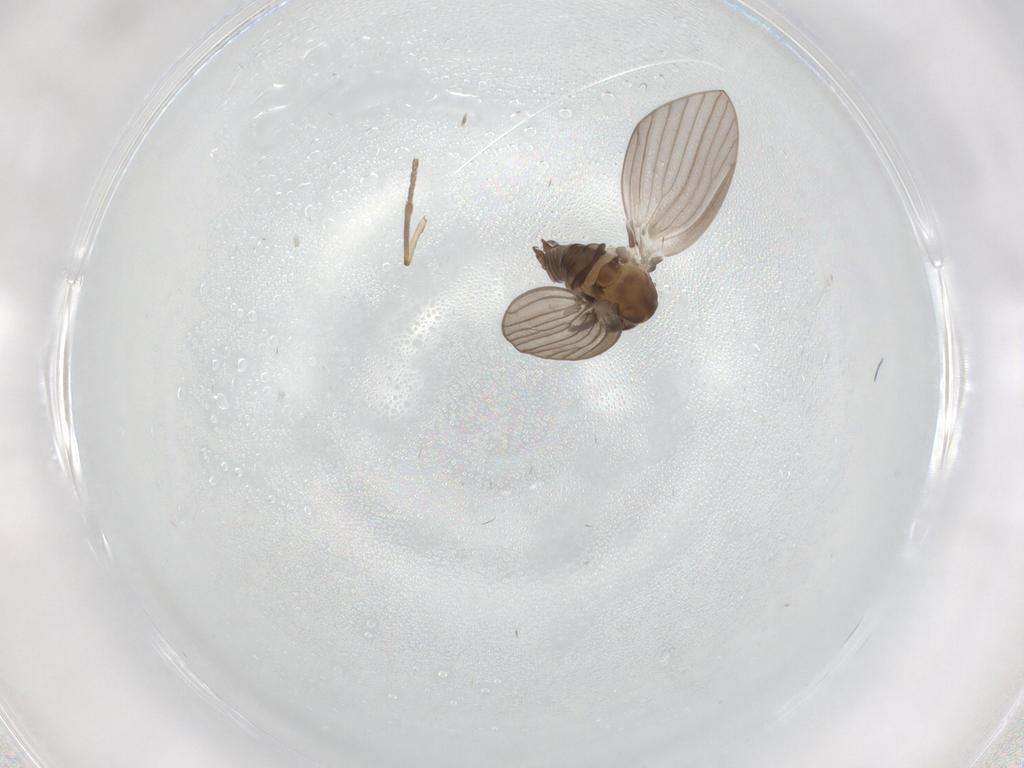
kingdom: Animalia
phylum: Arthropoda
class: Insecta
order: Diptera
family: Psychodidae
